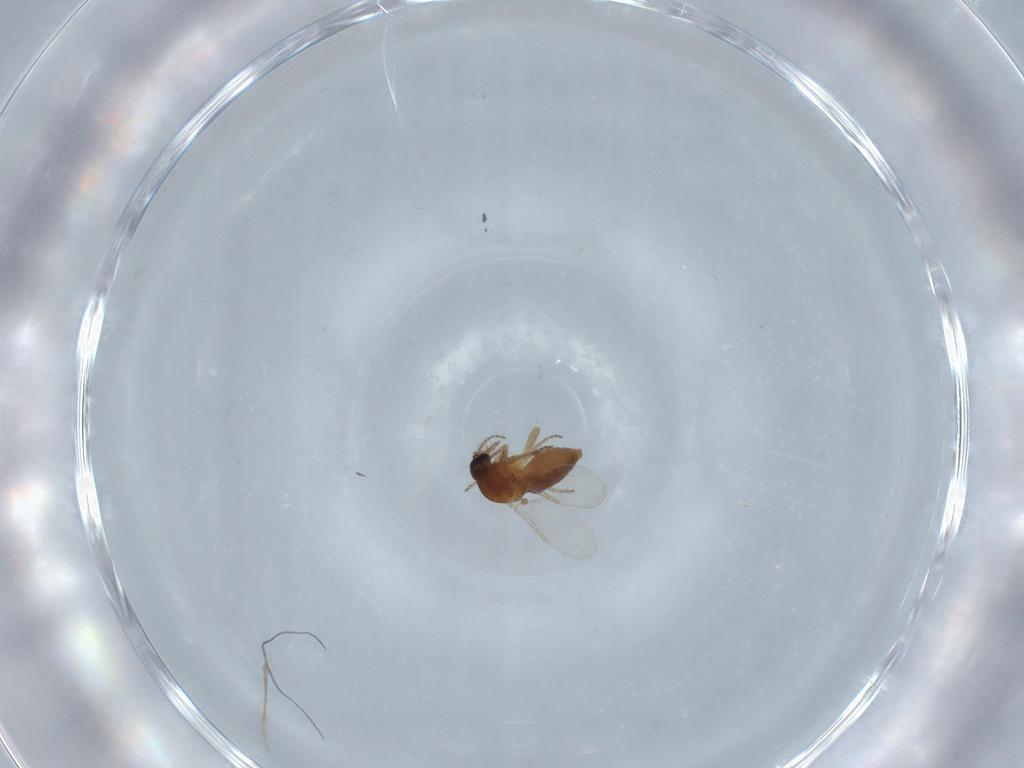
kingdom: Animalia
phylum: Arthropoda
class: Insecta
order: Diptera
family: Ceratopogonidae
